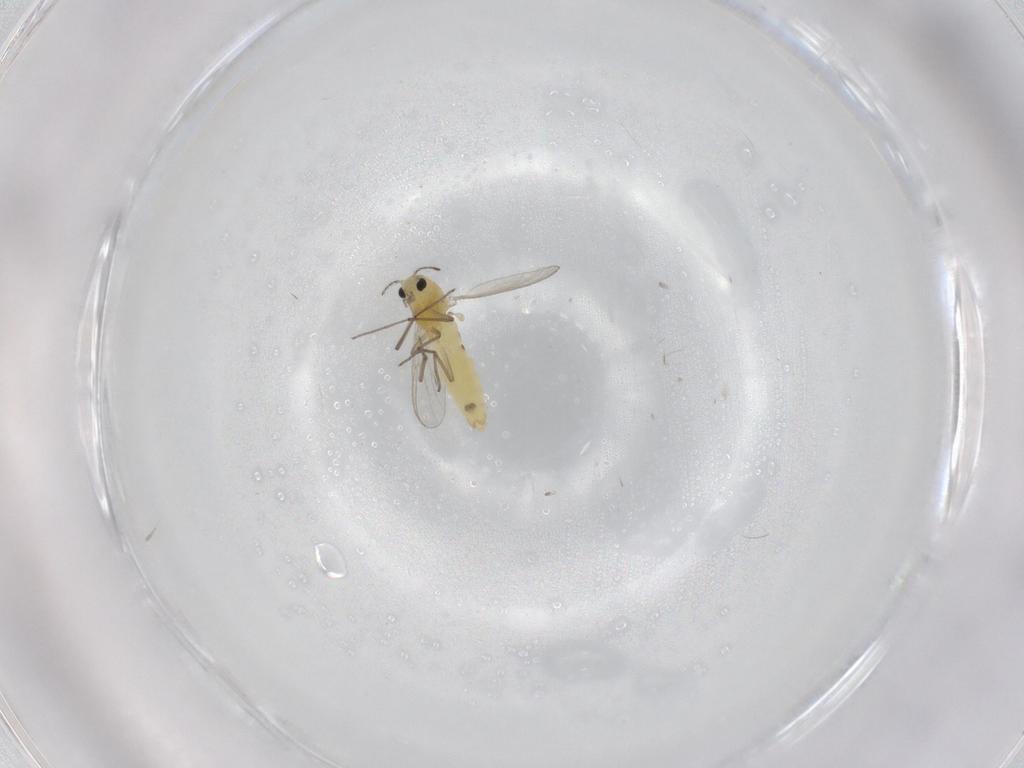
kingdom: Animalia
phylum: Arthropoda
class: Insecta
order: Diptera
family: Chironomidae
